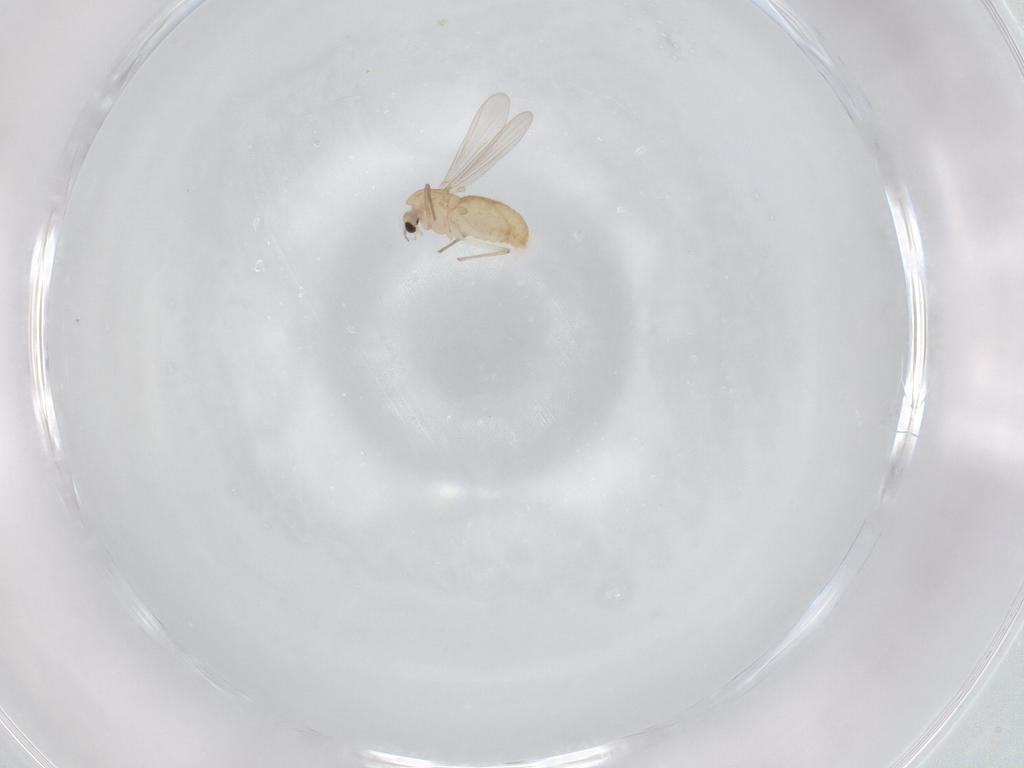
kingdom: Animalia
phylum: Arthropoda
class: Insecta
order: Diptera
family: Chironomidae
